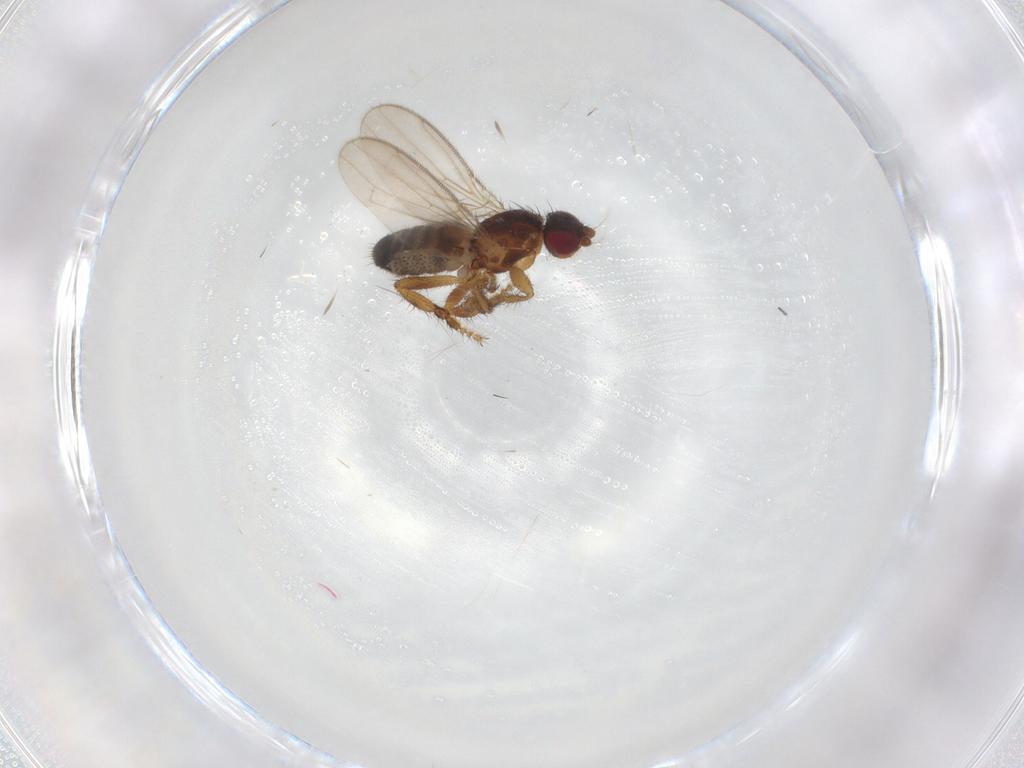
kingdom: Animalia
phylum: Arthropoda
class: Insecta
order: Diptera
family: Sphaeroceridae
